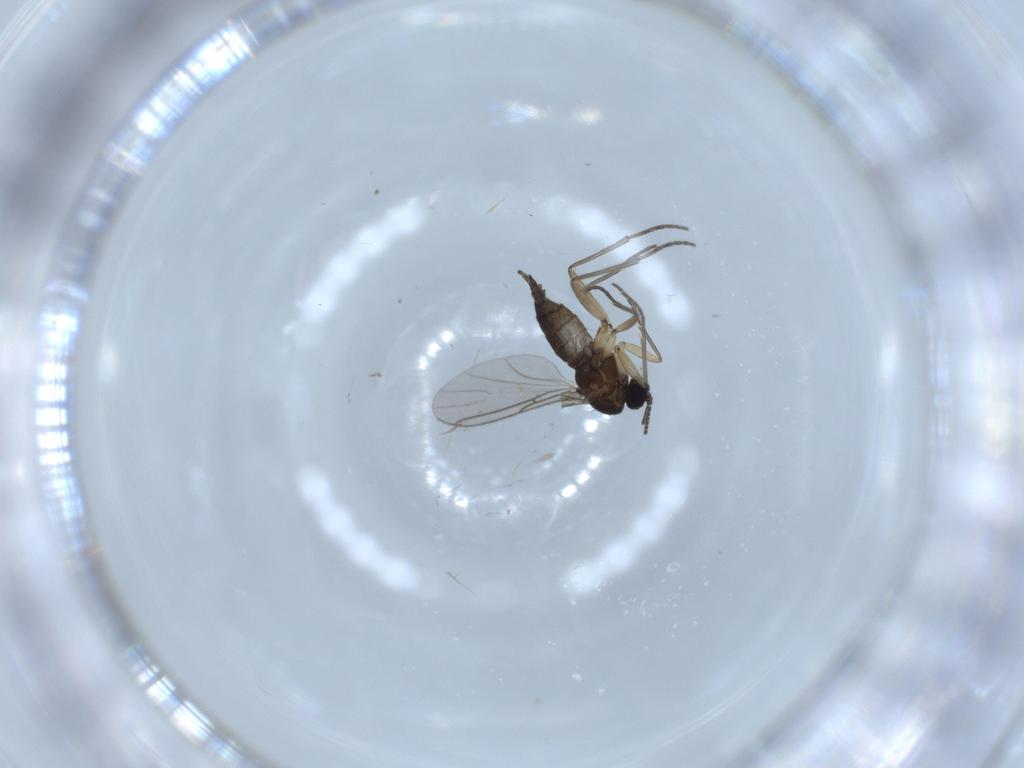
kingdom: Animalia
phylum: Arthropoda
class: Insecta
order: Diptera
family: Sciaridae
